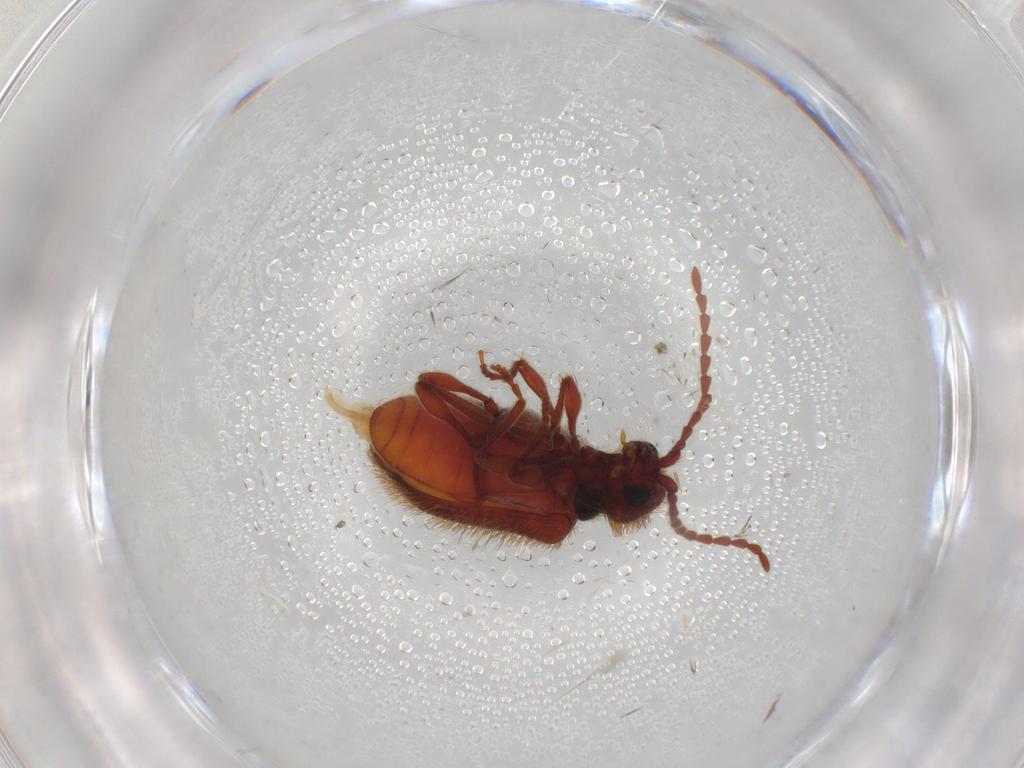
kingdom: Animalia
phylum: Arthropoda
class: Insecta
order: Coleoptera
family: Ptinidae
